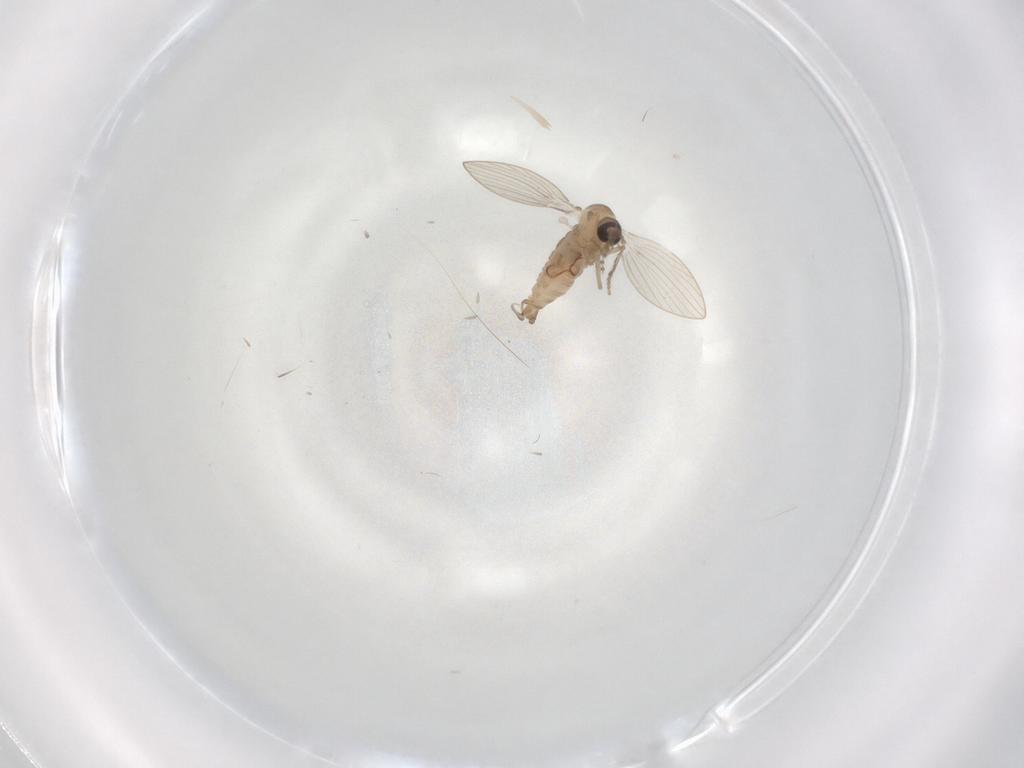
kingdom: Animalia
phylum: Arthropoda
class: Insecta
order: Diptera
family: Psychodidae
